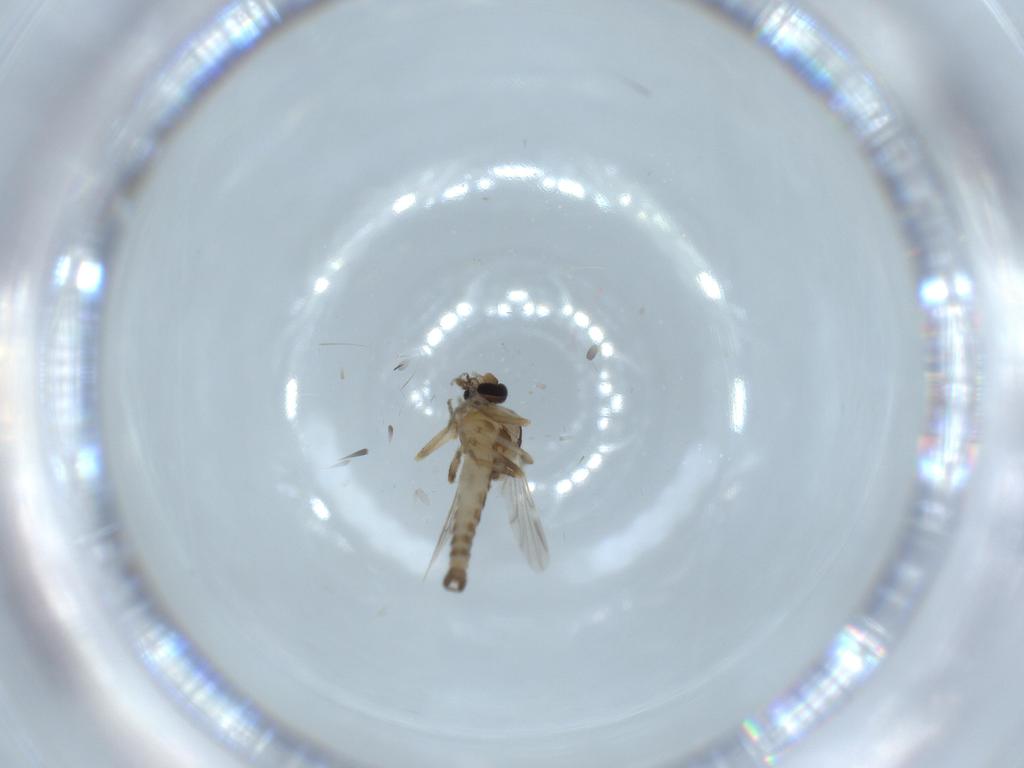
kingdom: Animalia
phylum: Arthropoda
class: Insecta
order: Diptera
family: Ceratopogonidae
